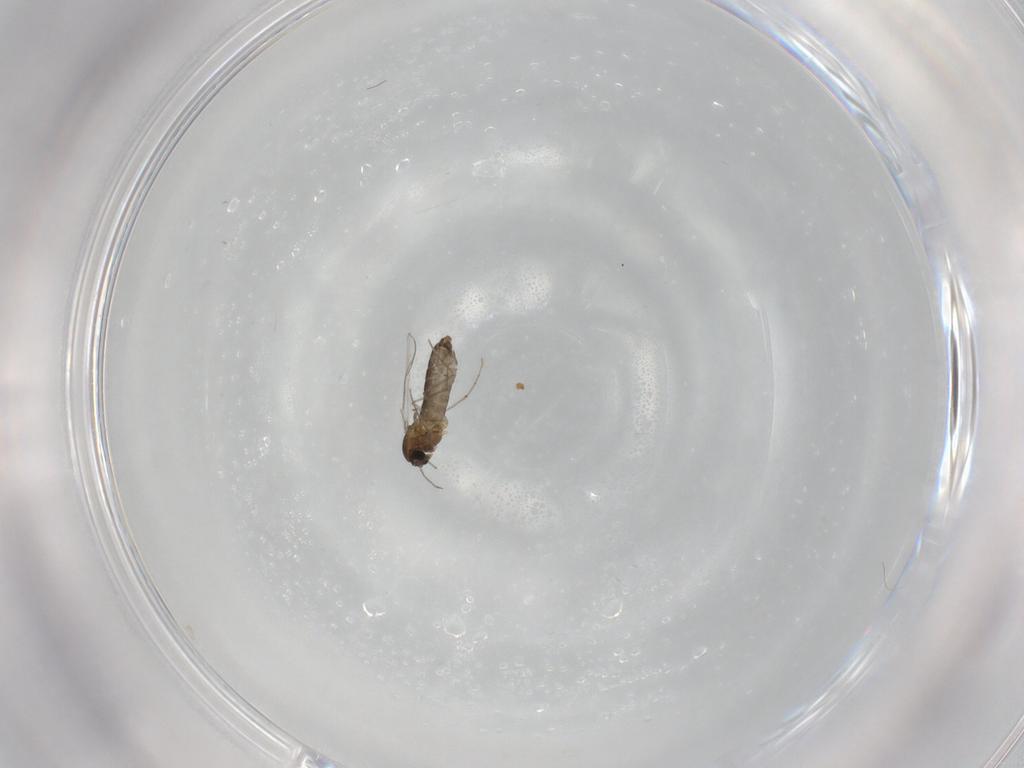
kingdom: Animalia
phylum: Arthropoda
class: Insecta
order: Diptera
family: Chironomidae
